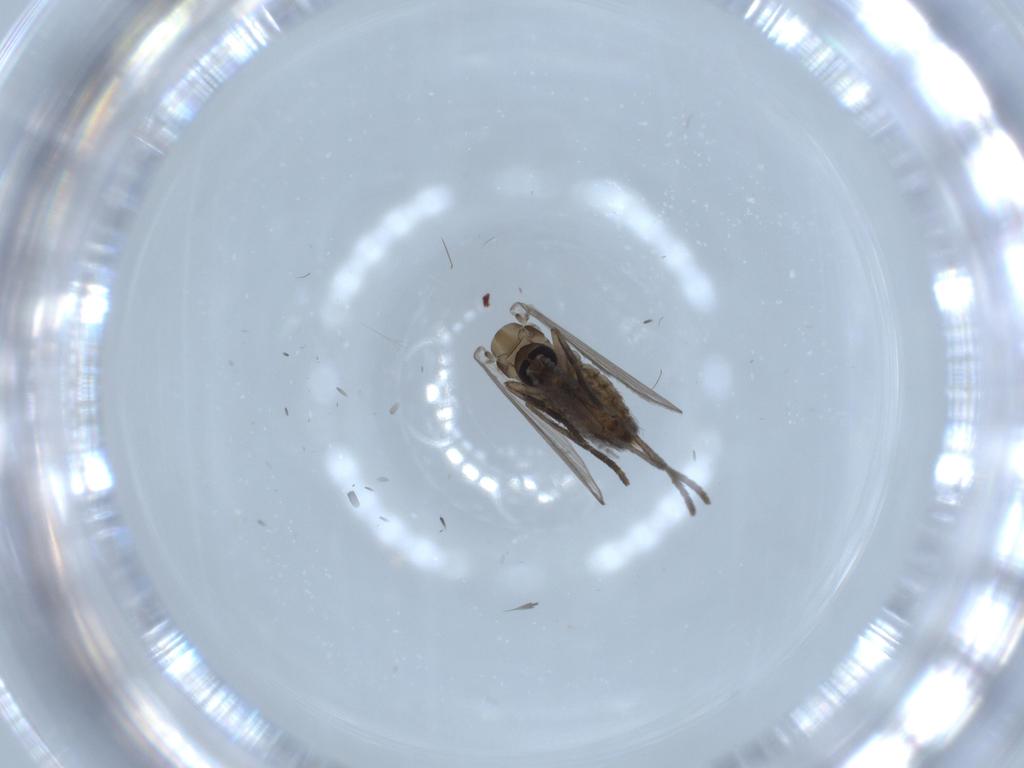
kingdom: Animalia
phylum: Arthropoda
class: Insecta
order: Diptera
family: Psychodidae
